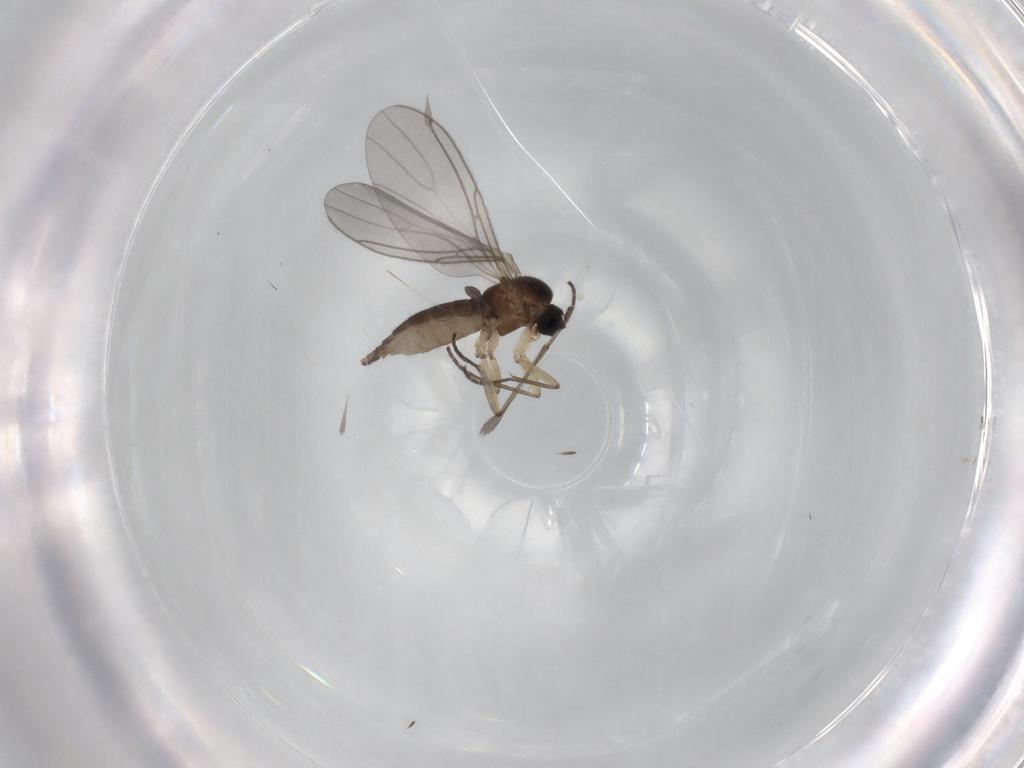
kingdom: Animalia
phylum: Arthropoda
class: Insecta
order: Diptera
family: Sciaridae
